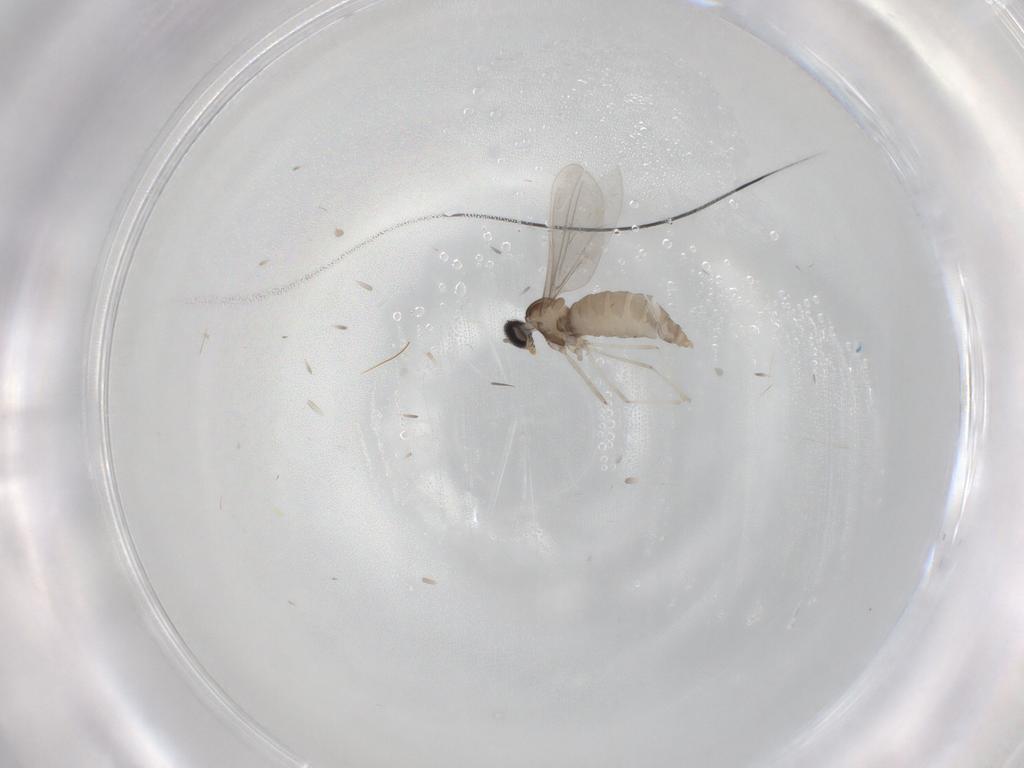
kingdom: Animalia
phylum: Arthropoda
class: Insecta
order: Diptera
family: Cecidomyiidae
